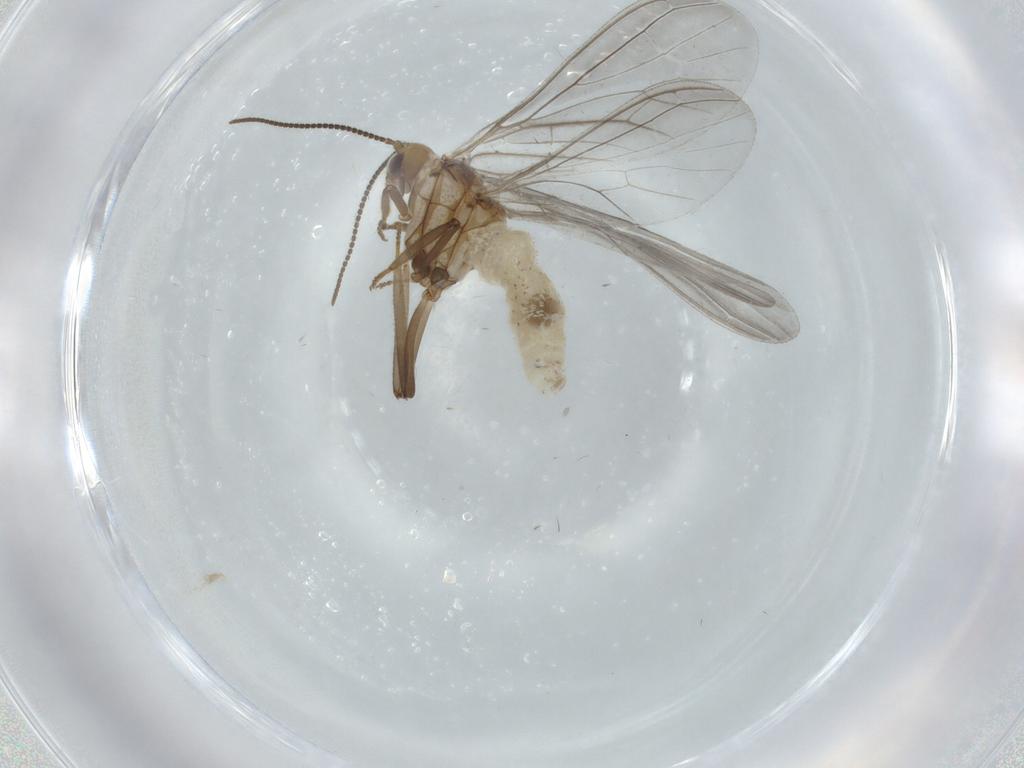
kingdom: Animalia
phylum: Arthropoda
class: Insecta
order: Neuroptera
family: Coniopterygidae
